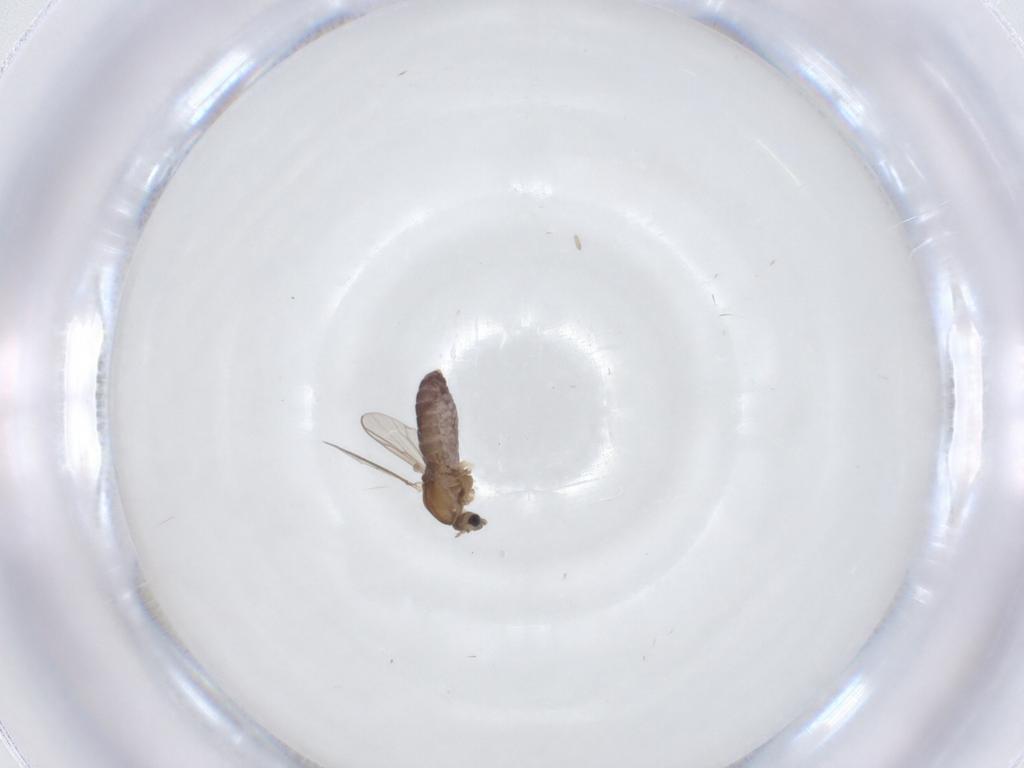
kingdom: Animalia
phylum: Arthropoda
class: Insecta
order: Diptera
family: Chironomidae
